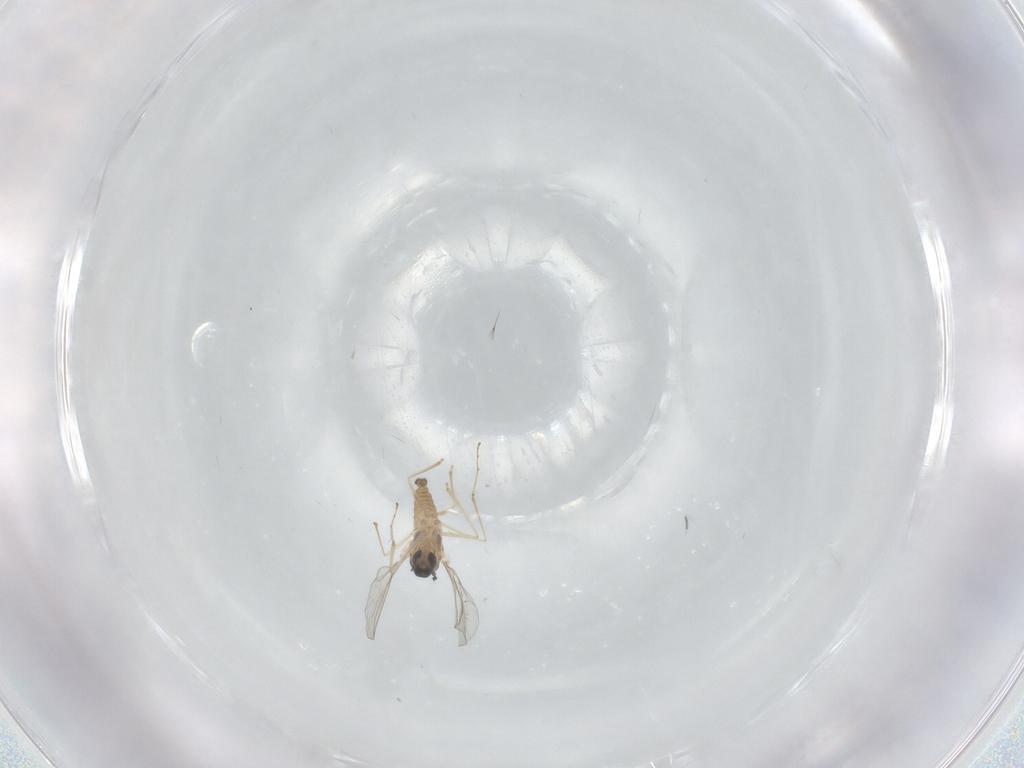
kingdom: Animalia
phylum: Arthropoda
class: Insecta
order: Diptera
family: Cecidomyiidae
